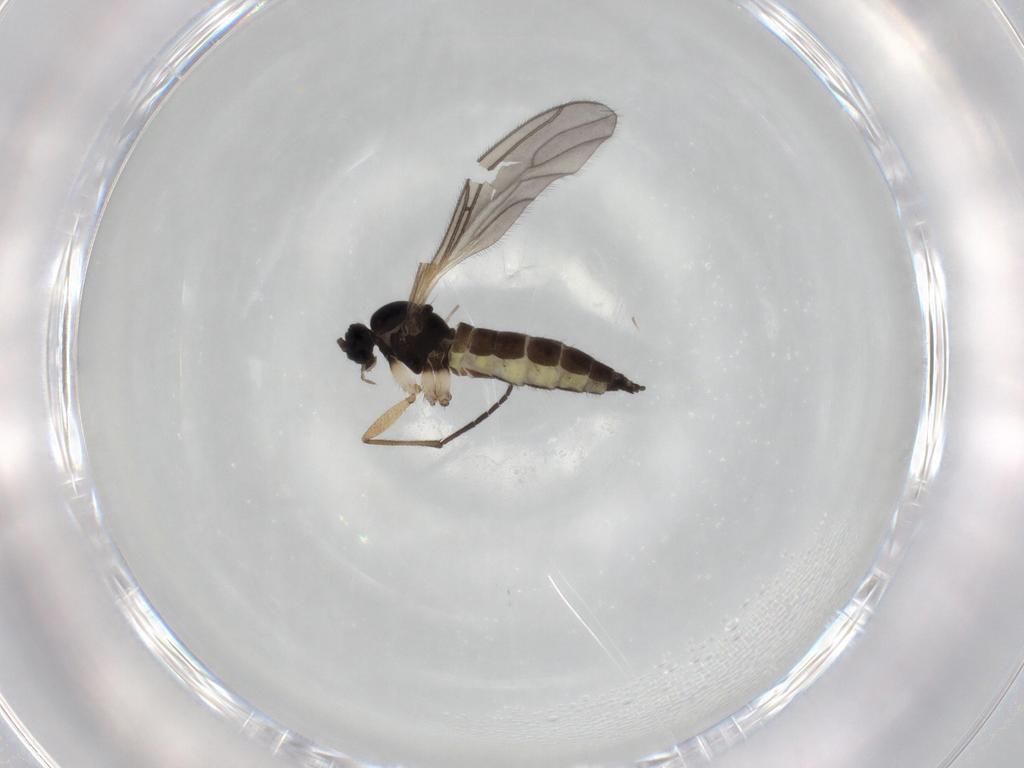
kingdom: Animalia
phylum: Arthropoda
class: Insecta
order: Diptera
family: Sciaridae
